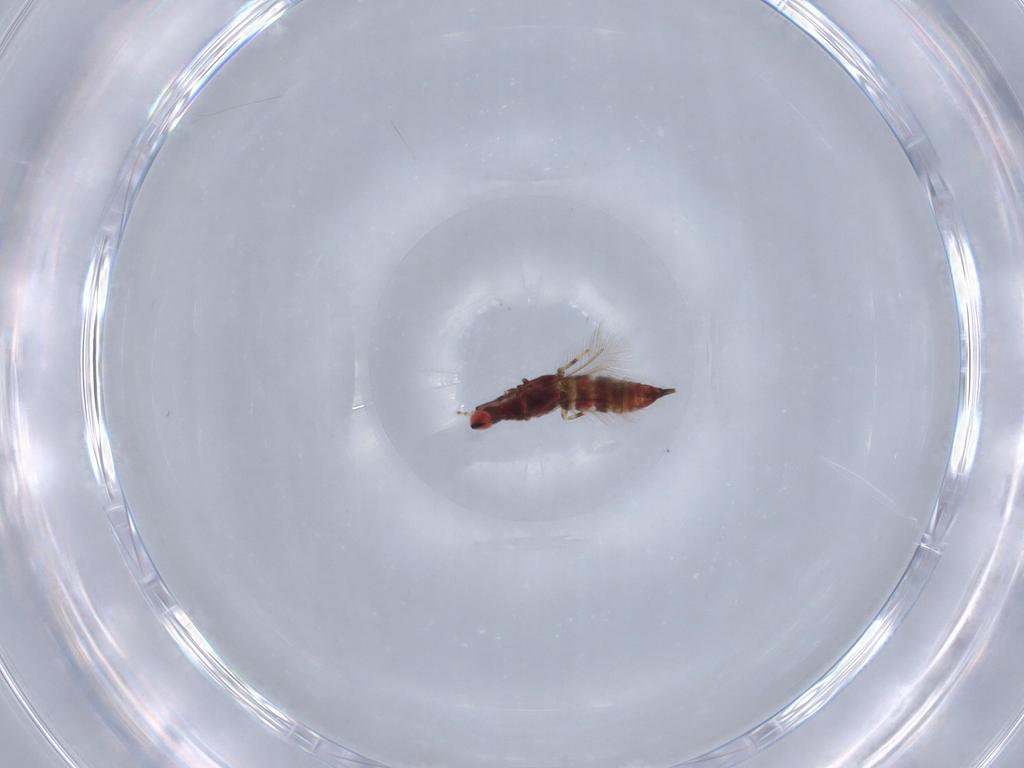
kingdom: Animalia
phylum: Arthropoda
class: Insecta
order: Thysanoptera
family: Phlaeothripidae
